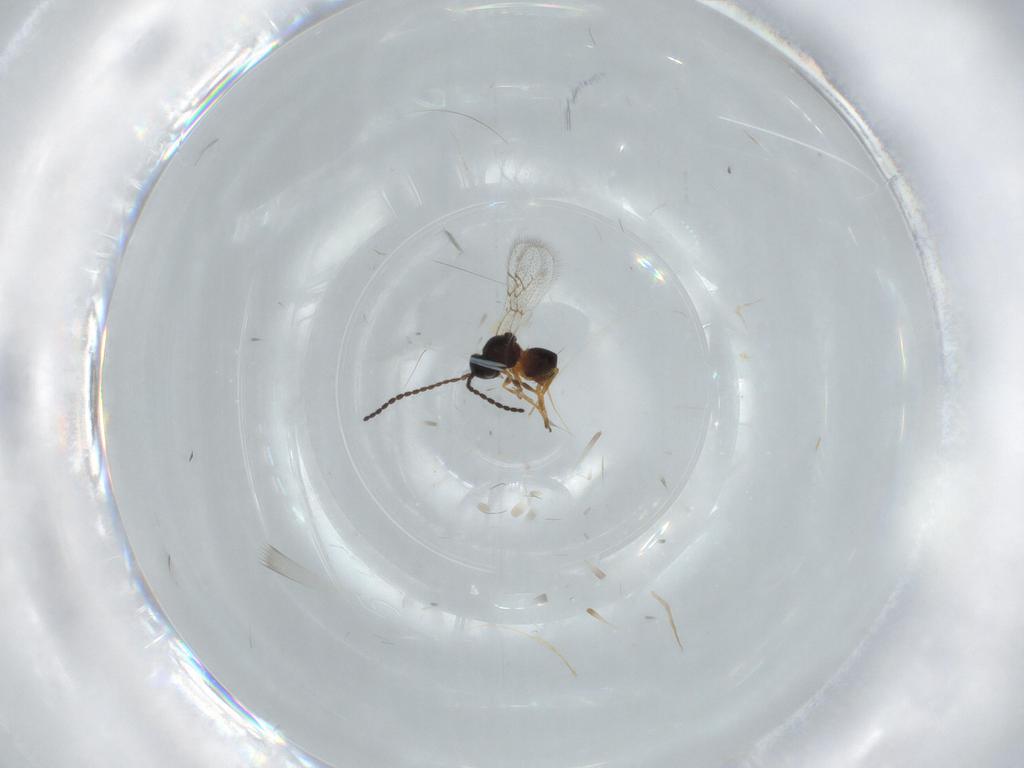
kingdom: Animalia
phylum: Arthropoda
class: Insecta
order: Hymenoptera
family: Figitidae
